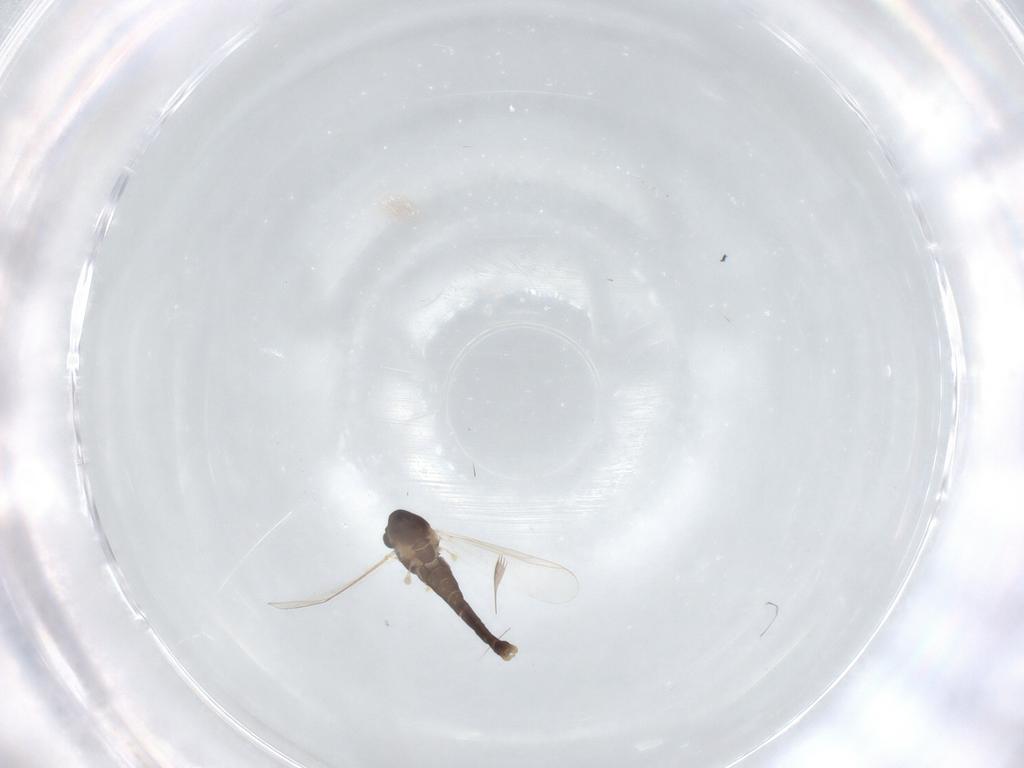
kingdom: Animalia
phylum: Arthropoda
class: Insecta
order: Diptera
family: Chironomidae
